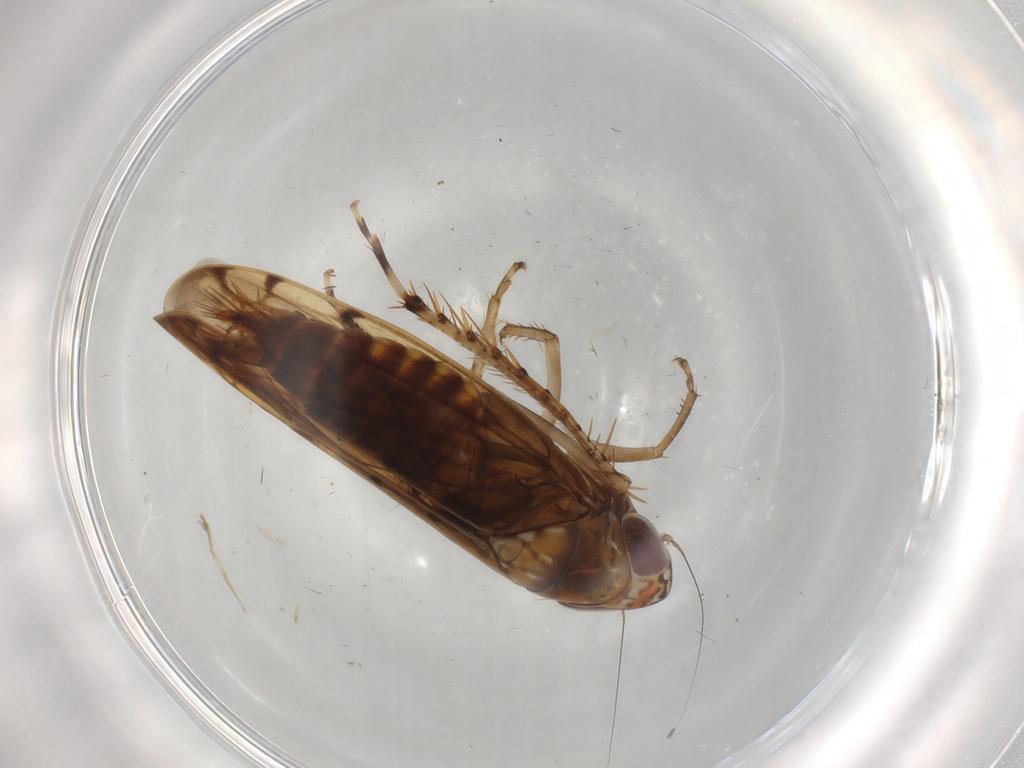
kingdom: Animalia
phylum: Arthropoda
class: Insecta
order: Hemiptera
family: Cicadellidae
